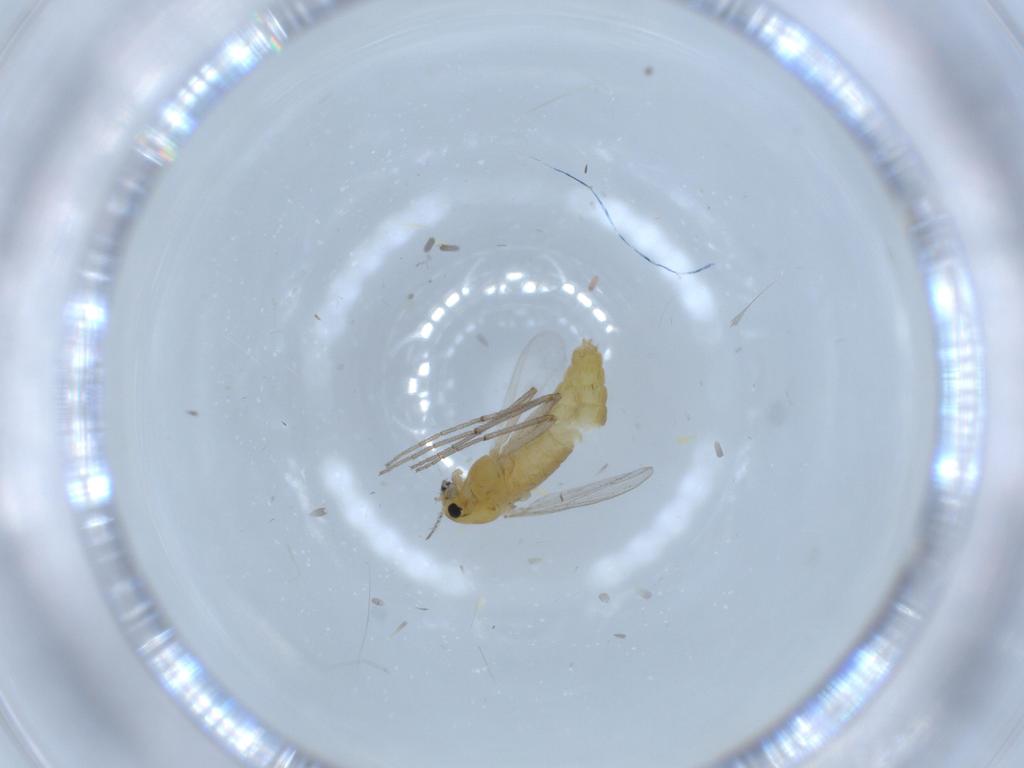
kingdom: Animalia
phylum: Arthropoda
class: Insecta
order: Diptera
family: Chironomidae
